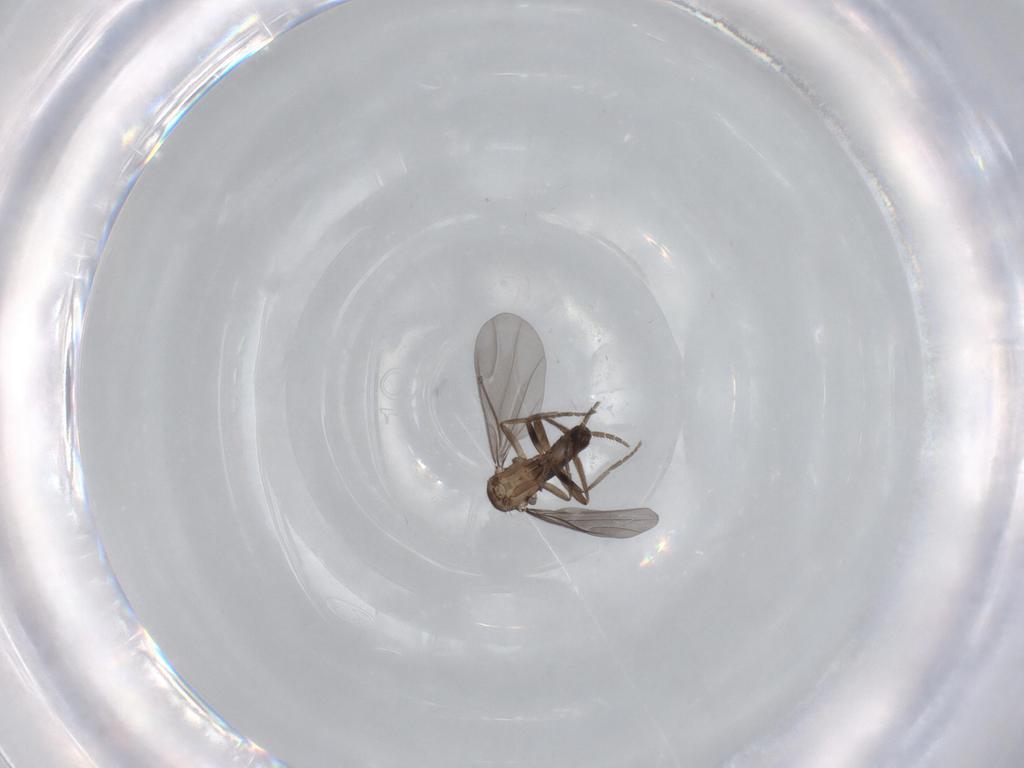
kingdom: Animalia
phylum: Arthropoda
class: Insecta
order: Diptera
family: Phoridae
